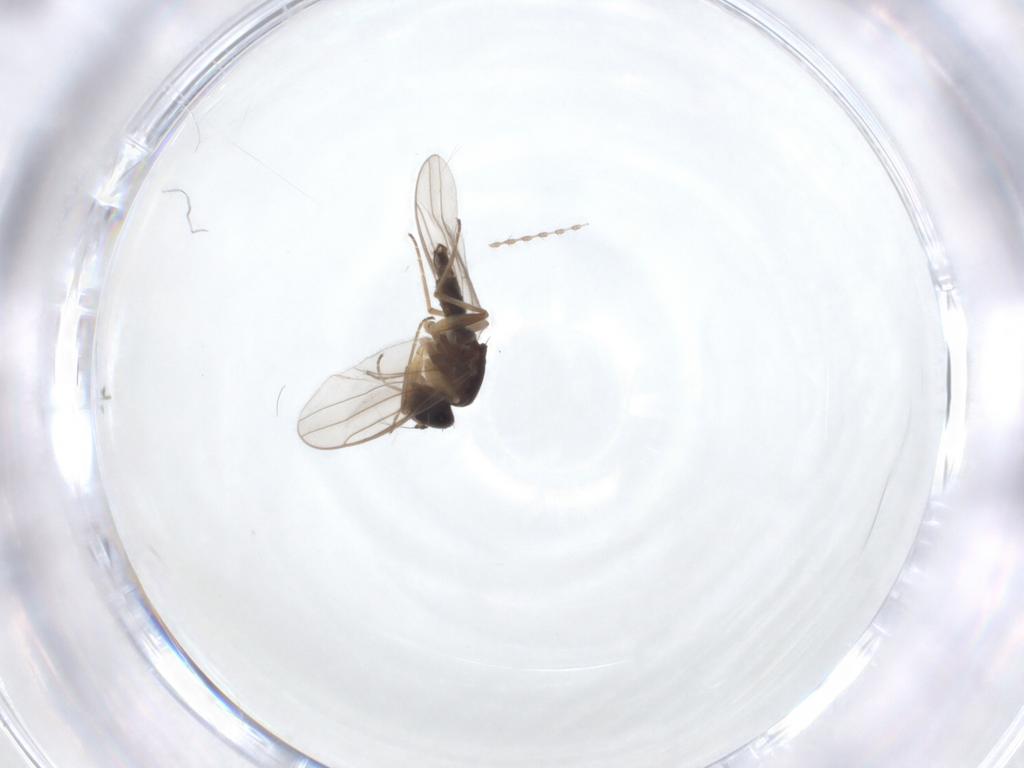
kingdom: Animalia
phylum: Arthropoda
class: Insecta
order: Diptera
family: Hybotidae
